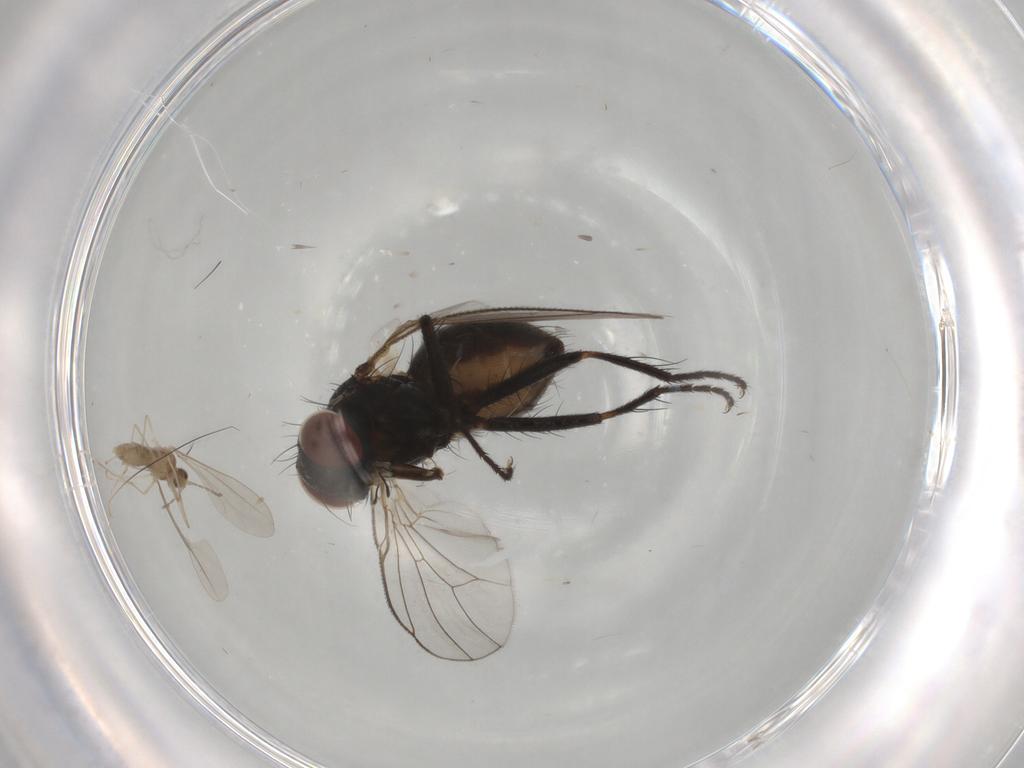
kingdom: Animalia
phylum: Arthropoda
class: Insecta
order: Diptera
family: Muscidae
